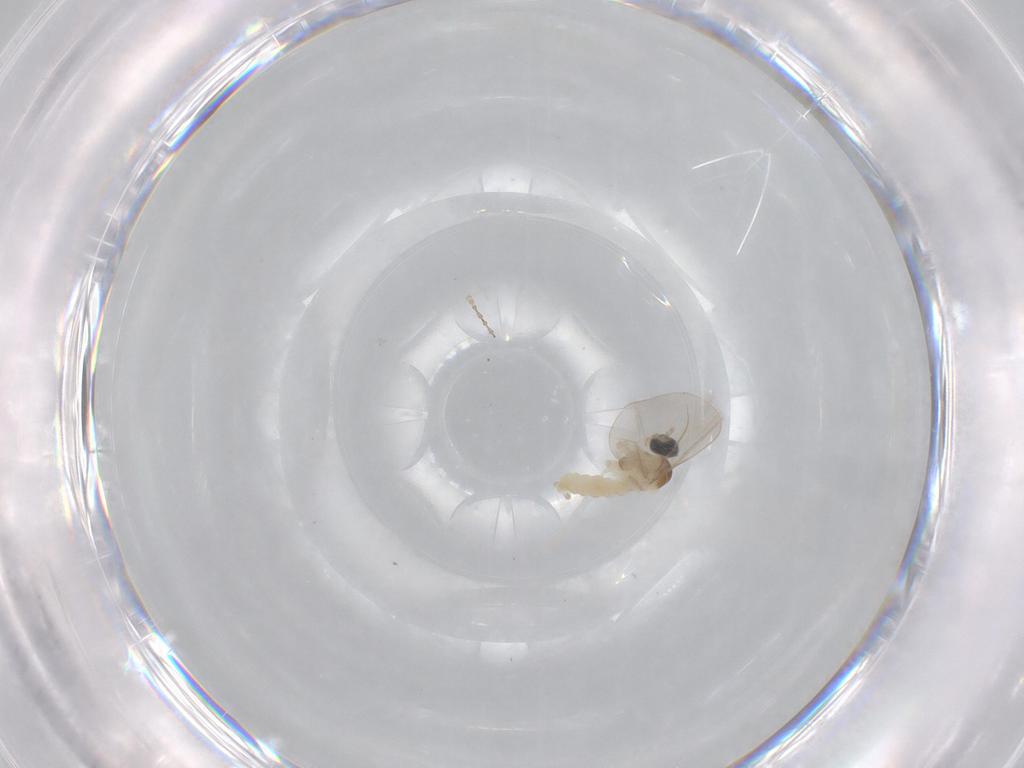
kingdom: Animalia
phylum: Arthropoda
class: Insecta
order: Diptera
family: Cecidomyiidae
